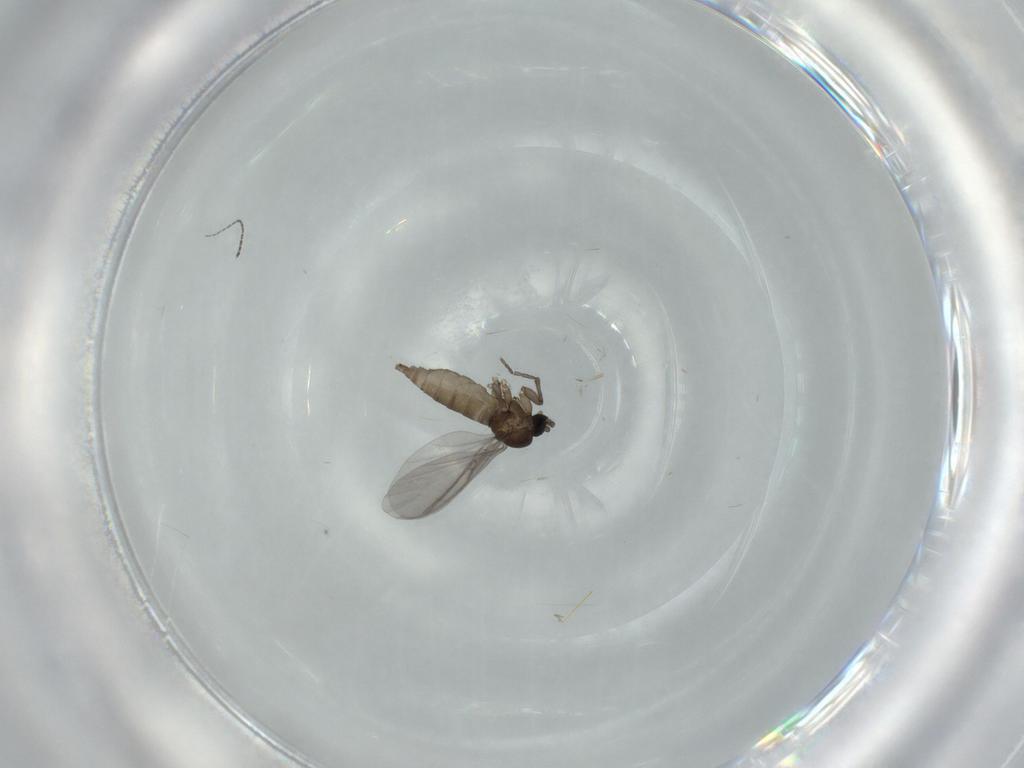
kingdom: Animalia
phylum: Arthropoda
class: Insecta
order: Diptera
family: Sciaridae
